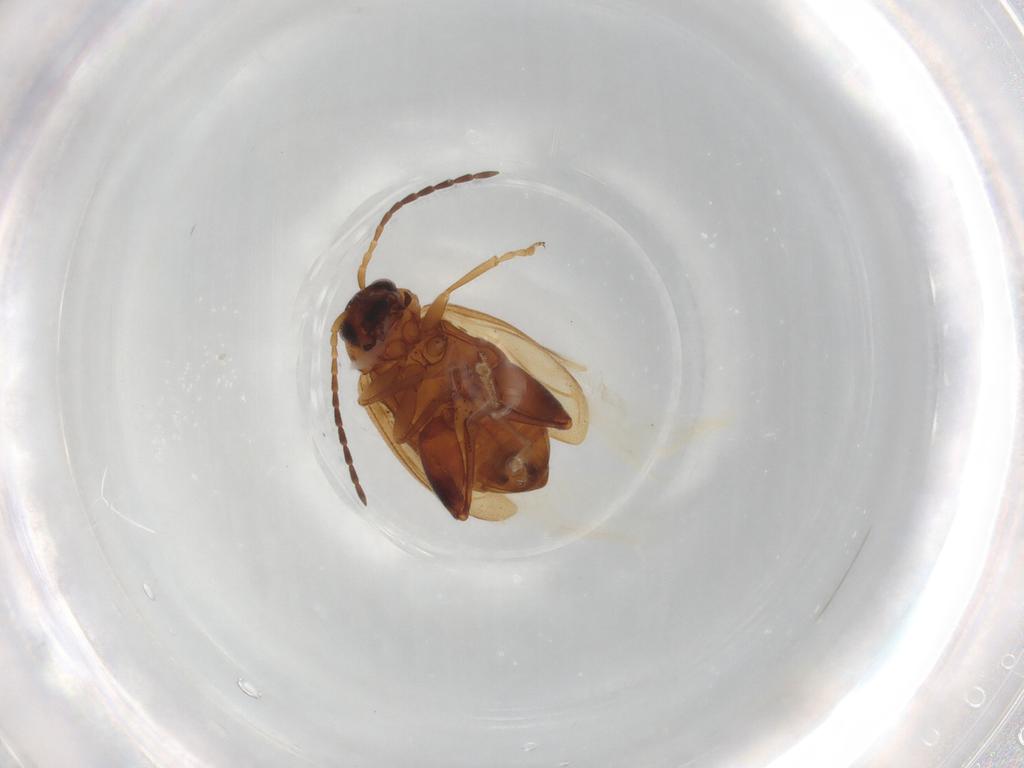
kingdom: Animalia
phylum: Arthropoda
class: Insecta
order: Coleoptera
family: Chrysomelidae
